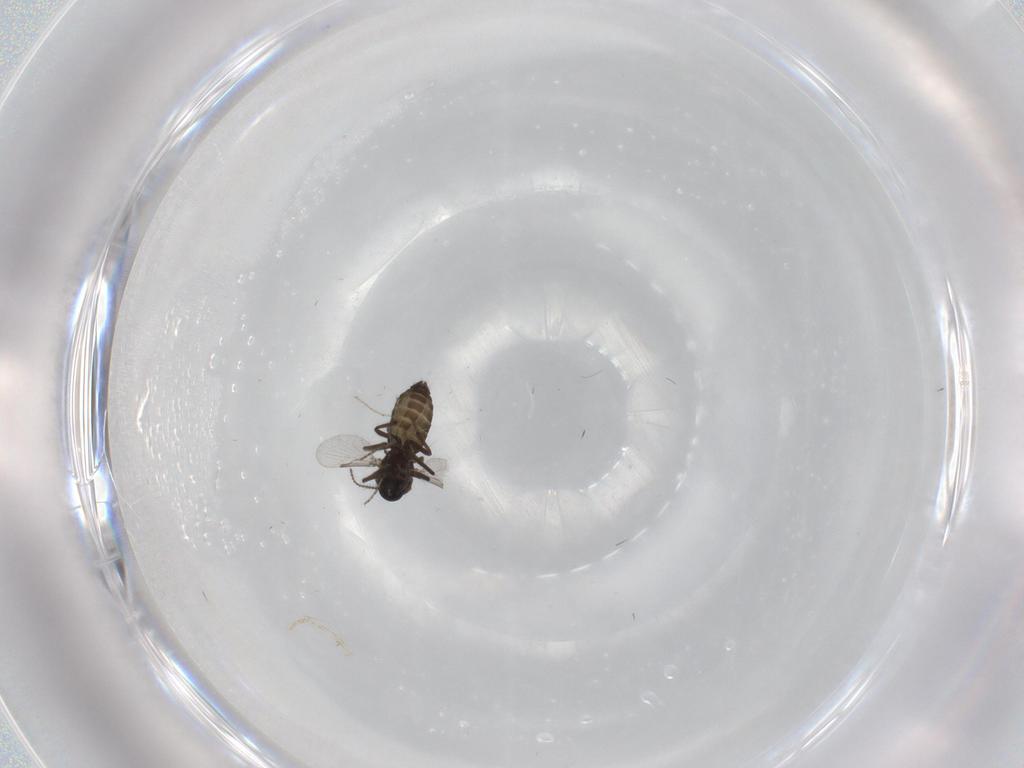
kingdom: Animalia
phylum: Arthropoda
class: Insecta
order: Diptera
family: Ceratopogonidae
